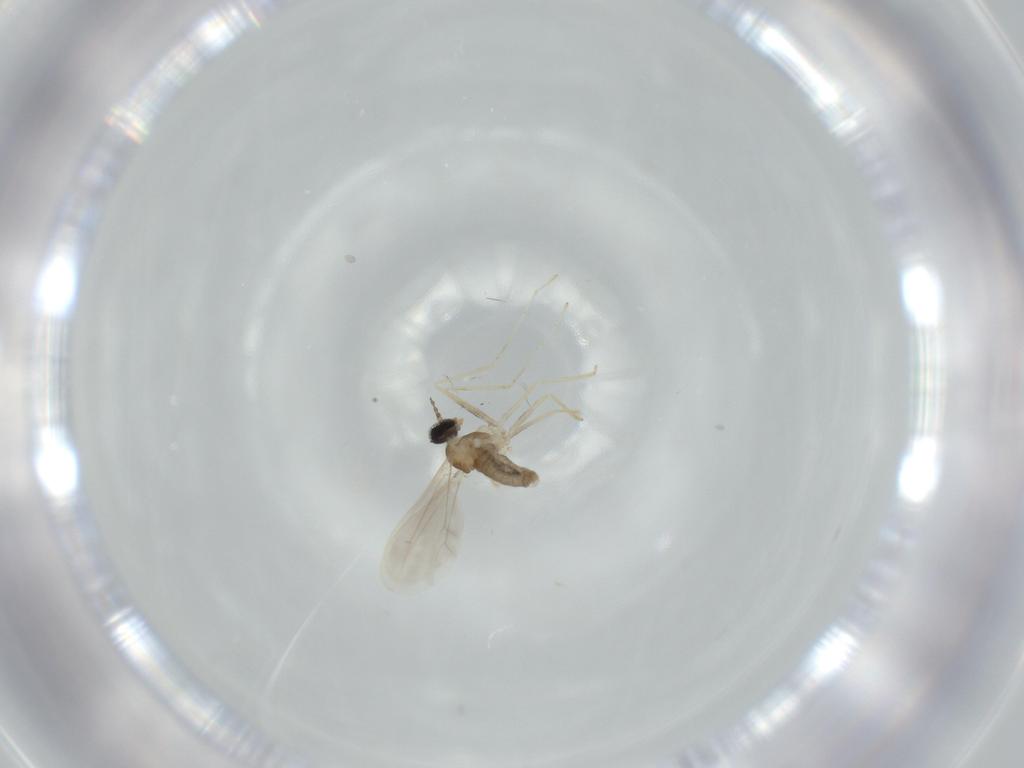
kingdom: Animalia
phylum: Arthropoda
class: Insecta
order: Diptera
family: Cecidomyiidae
